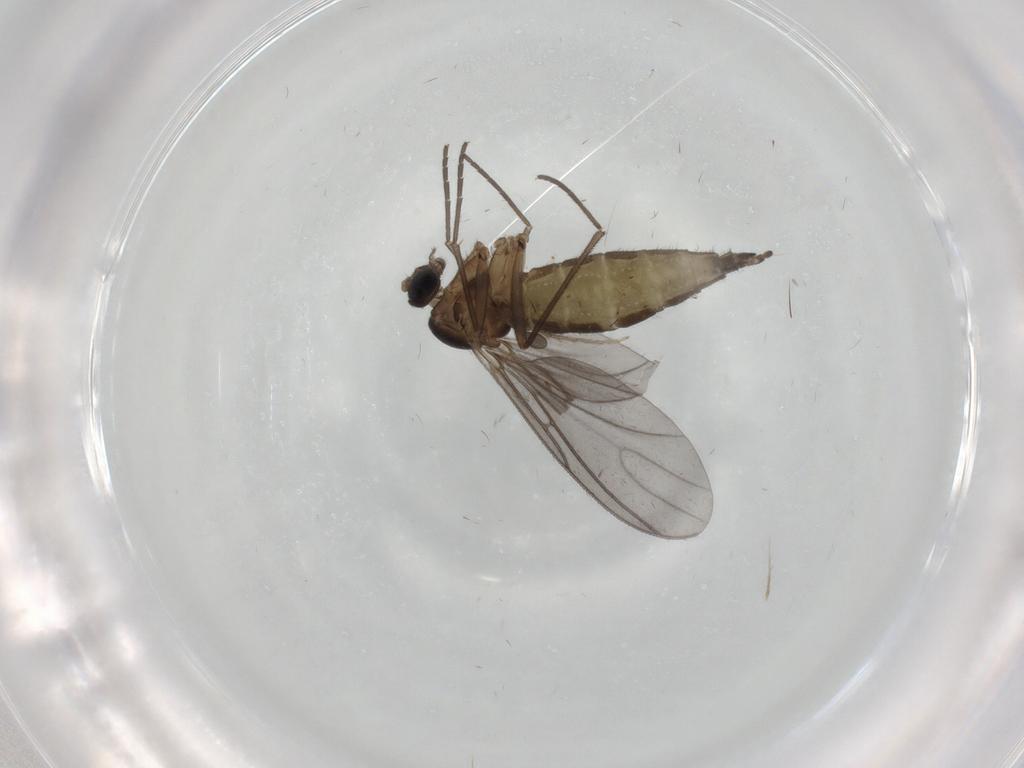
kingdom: Animalia
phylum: Arthropoda
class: Insecta
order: Diptera
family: Chironomidae
